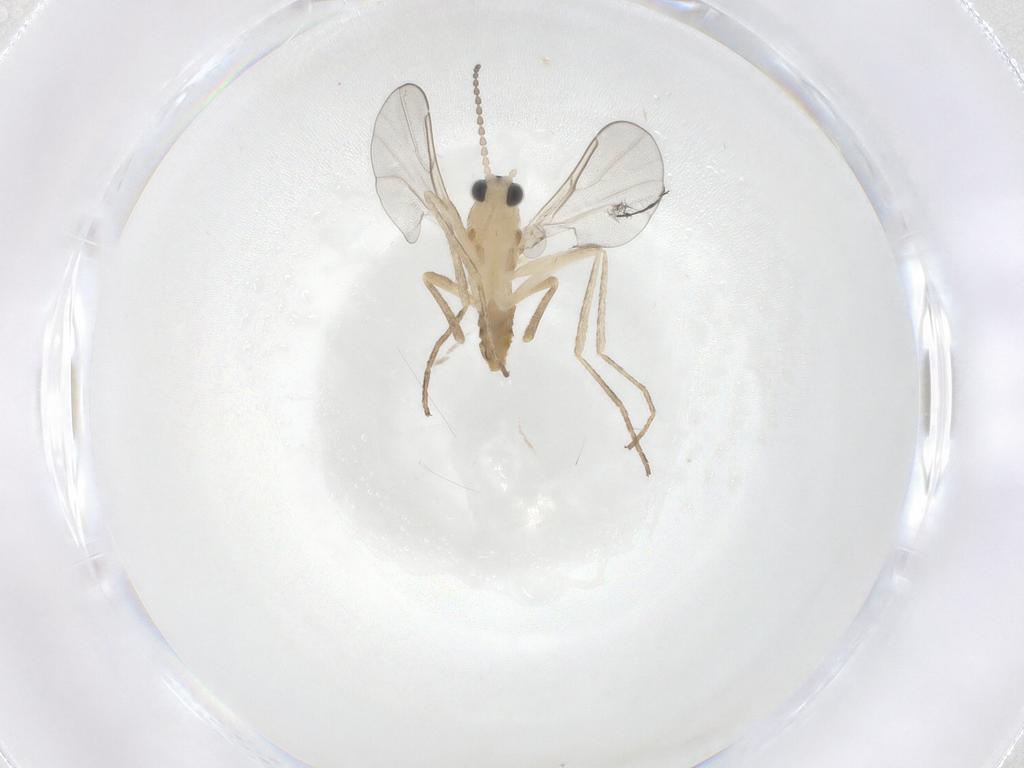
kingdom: Animalia
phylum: Arthropoda
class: Insecta
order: Diptera
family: Cecidomyiidae
